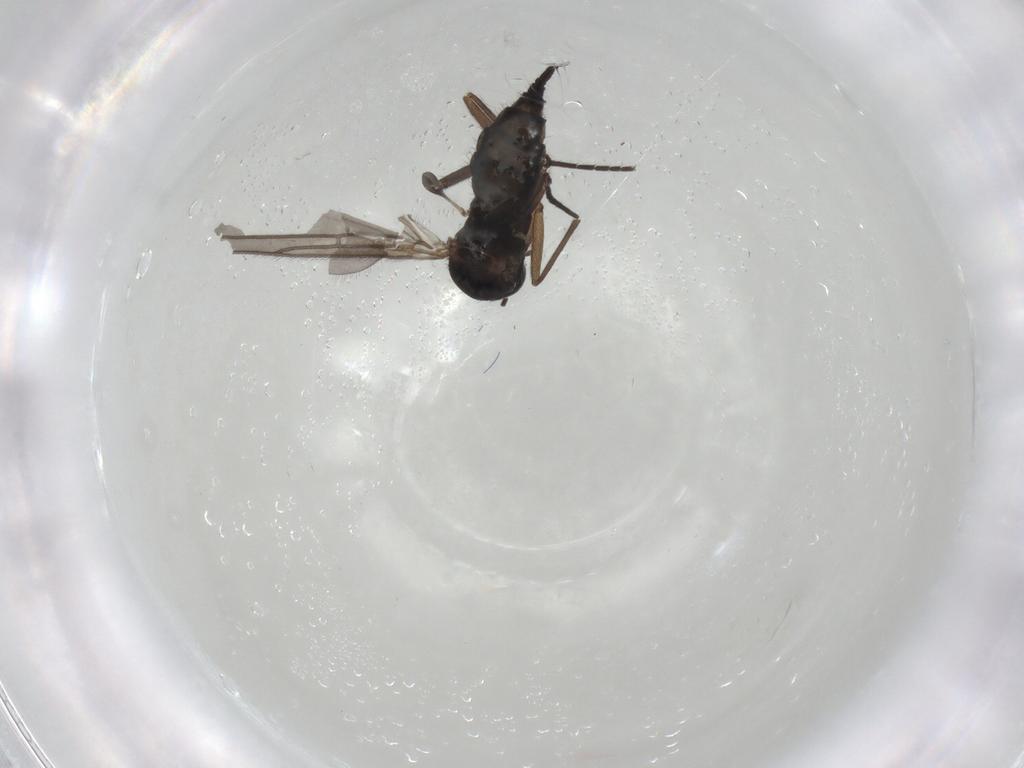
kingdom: Animalia
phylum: Arthropoda
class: Insecta
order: Diptera
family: Sciaridae
